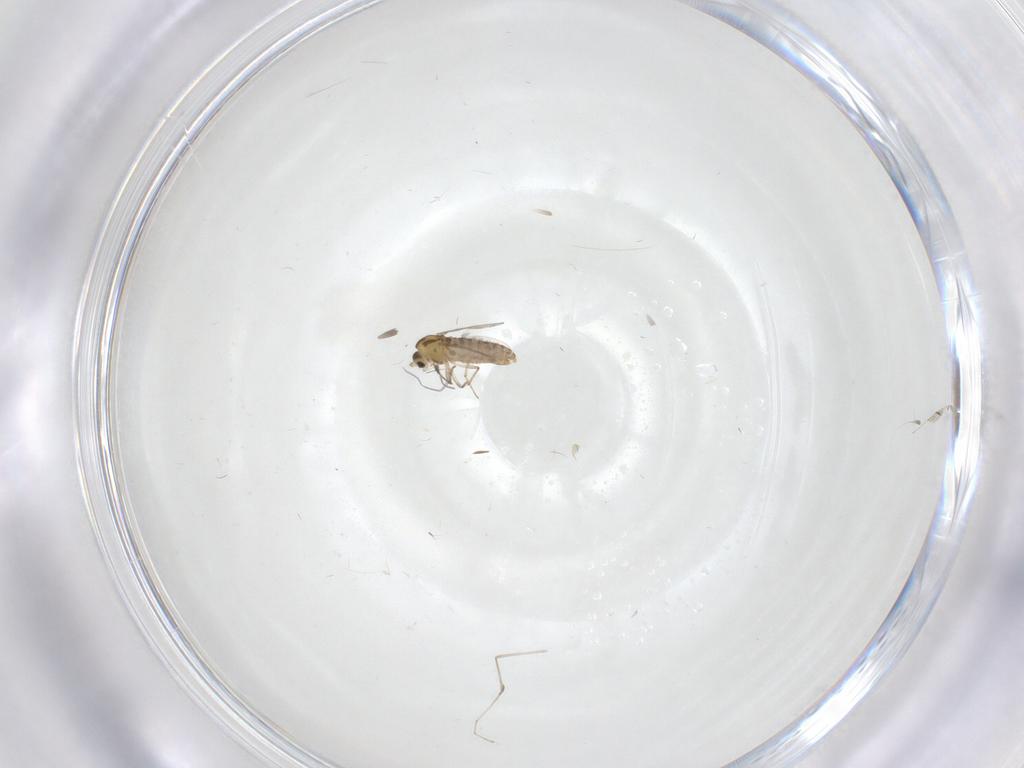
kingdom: Animalia
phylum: Arthropoda
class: Insecta
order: Diptera
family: Chironomidae
